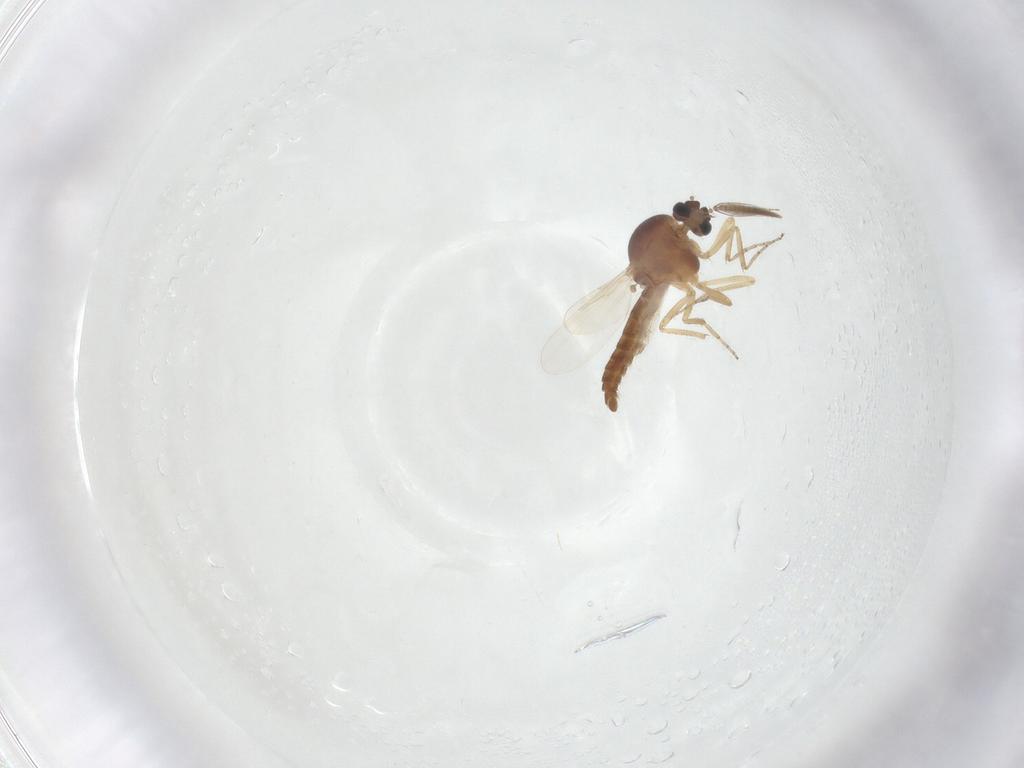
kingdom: Animalia
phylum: Arthropoda
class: Insecta
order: Diptera
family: Ceratopogonidae
